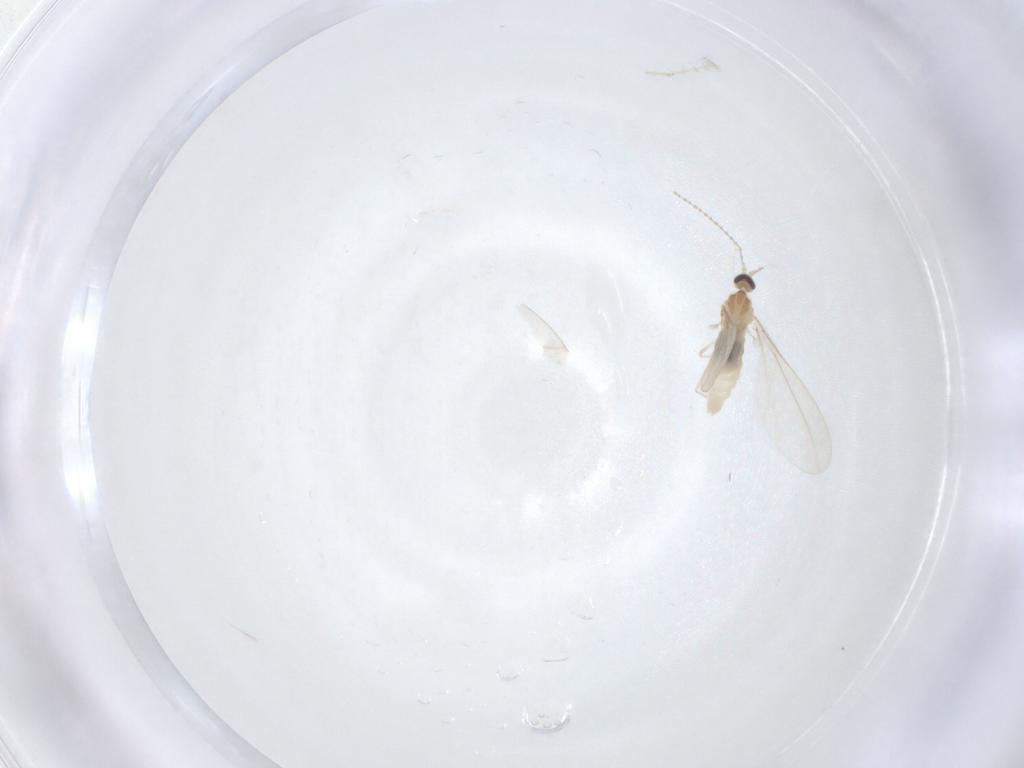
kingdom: Animalia
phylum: Arthropoda
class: Insecta
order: Diptera
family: Cecidomyiidae
